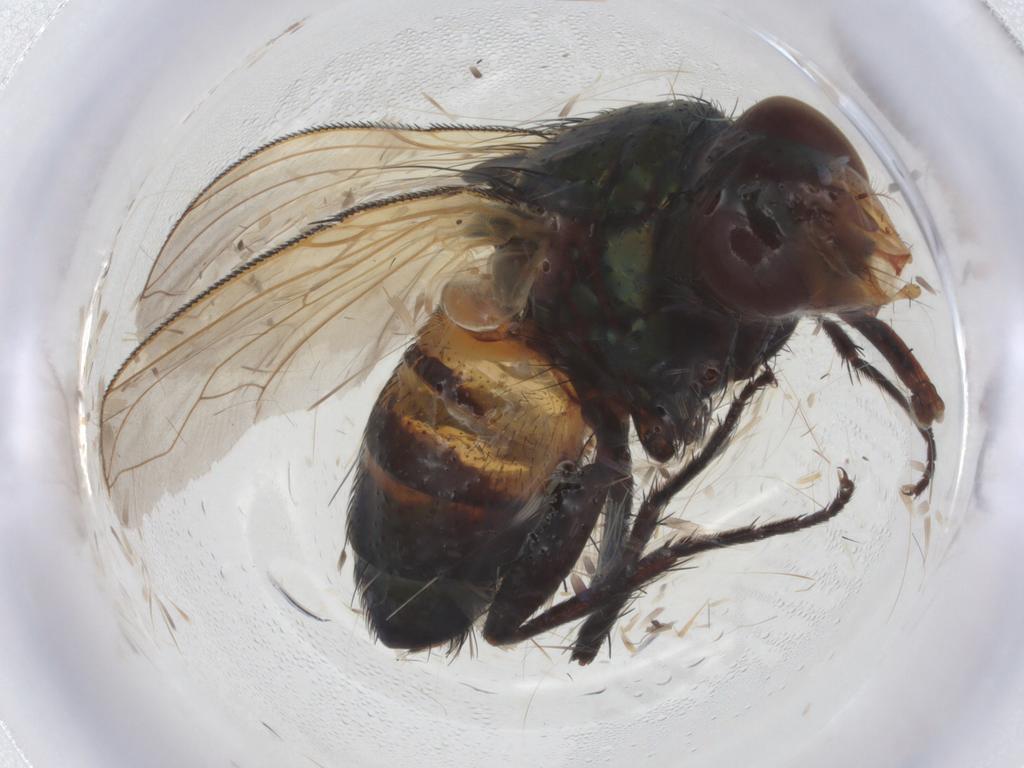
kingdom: Animalia
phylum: Arthropoda
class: Insecta
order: Diptera
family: Calliphoridae
